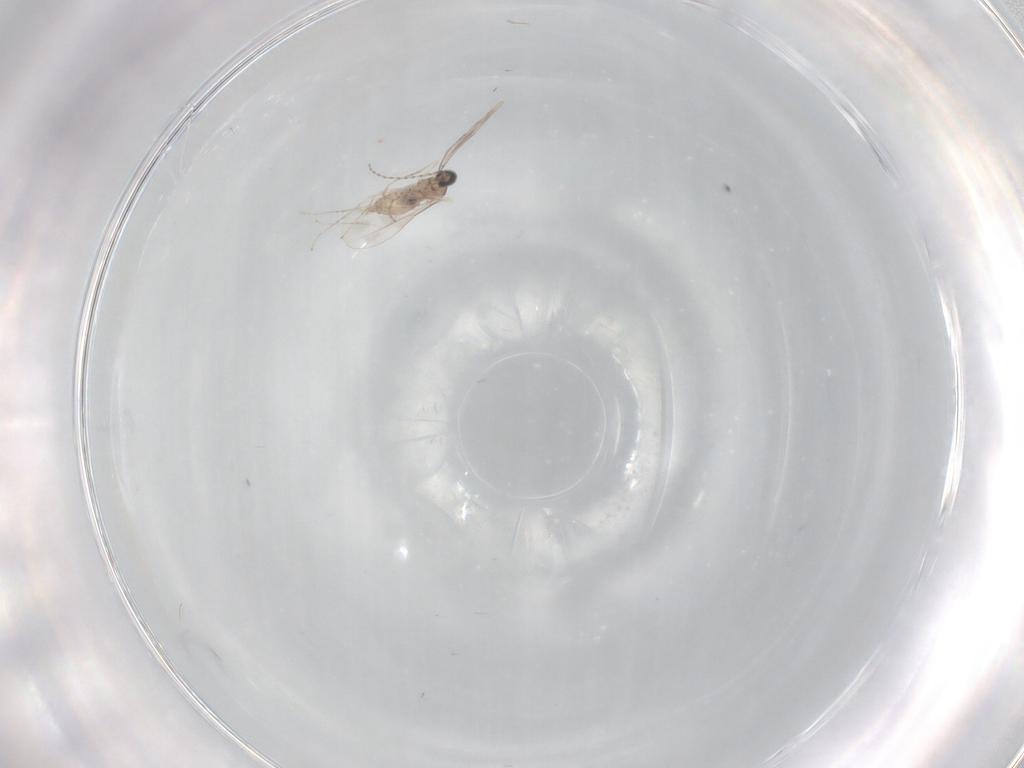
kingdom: Animalia
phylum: Arthropoda
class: Insecta
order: Diptera
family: Cecidomyiidae
